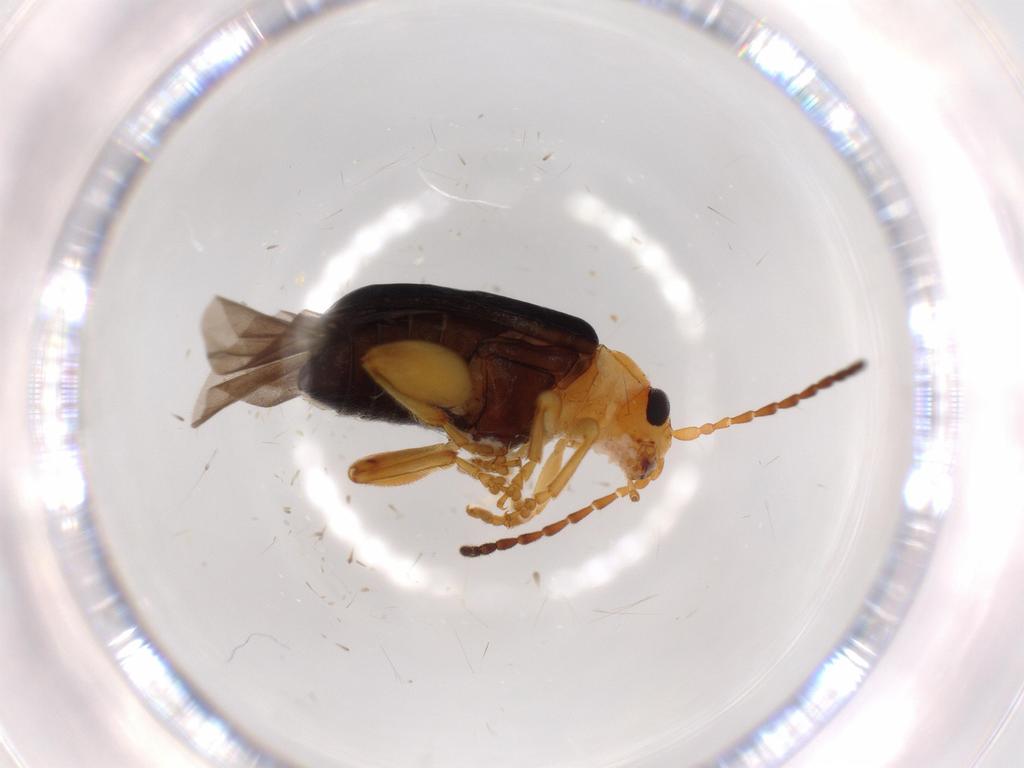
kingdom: Animalia
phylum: Arthropoda
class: Insecta
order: Coleoptera
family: Chrysomelidae
